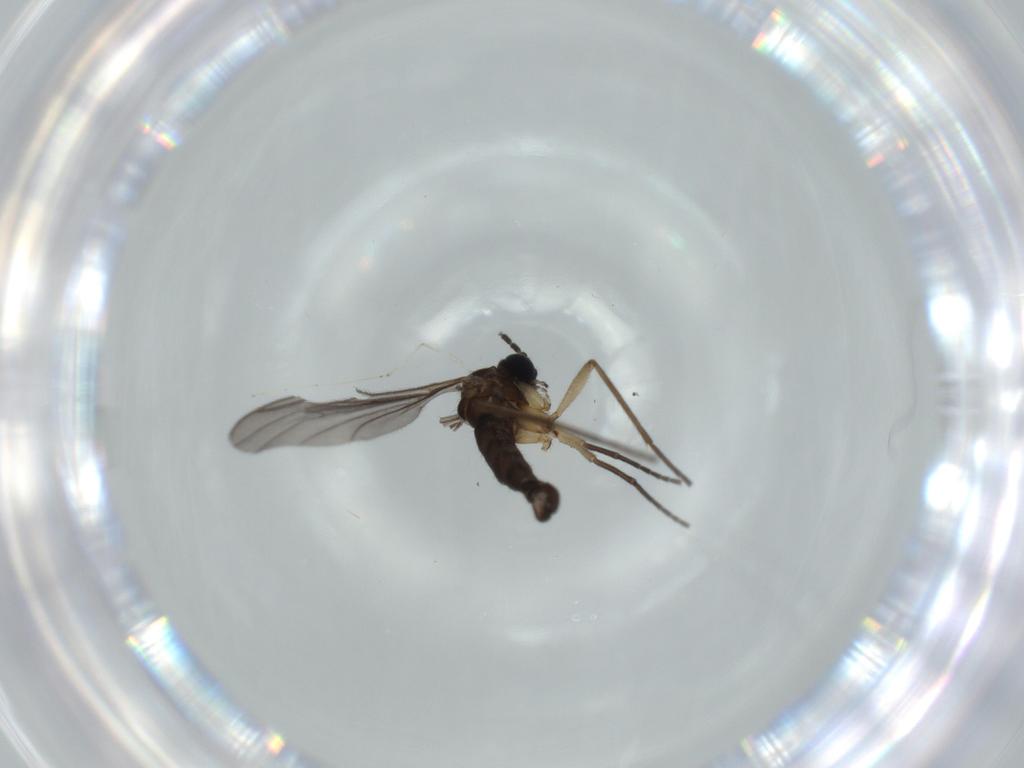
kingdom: Animalia
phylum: Arthropoda
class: Insecta
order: Diptera
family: Sciaridae
